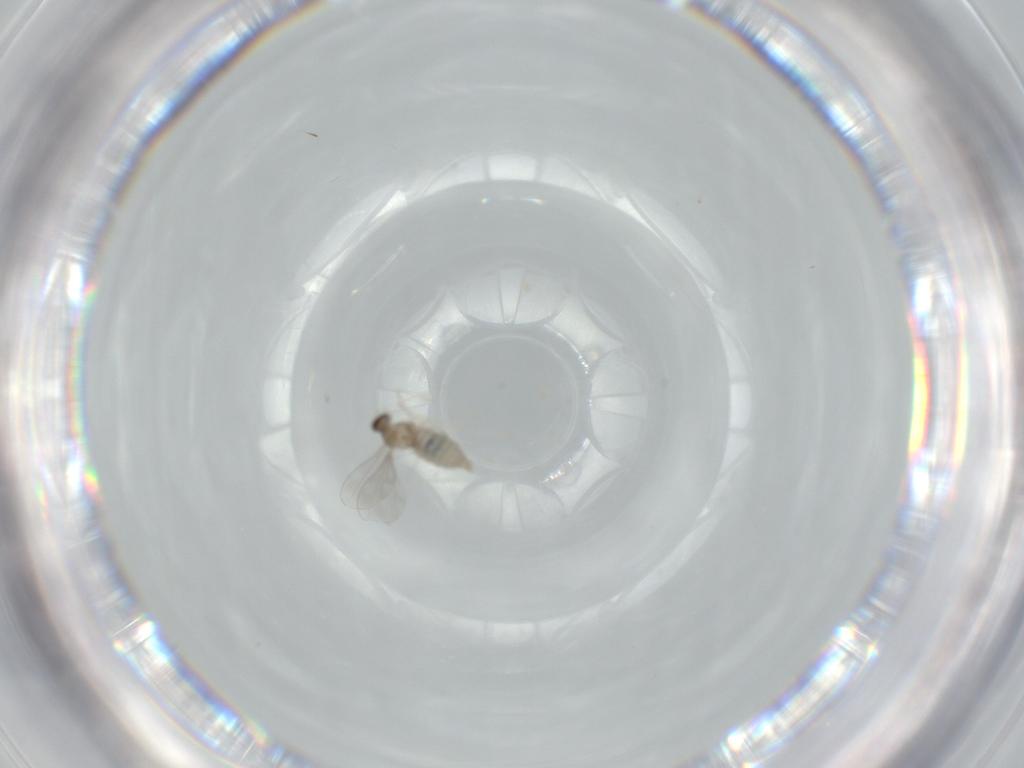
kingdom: Animalia
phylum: Arthropoda
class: Insecta
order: Diptera
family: Cecidomyiidae
